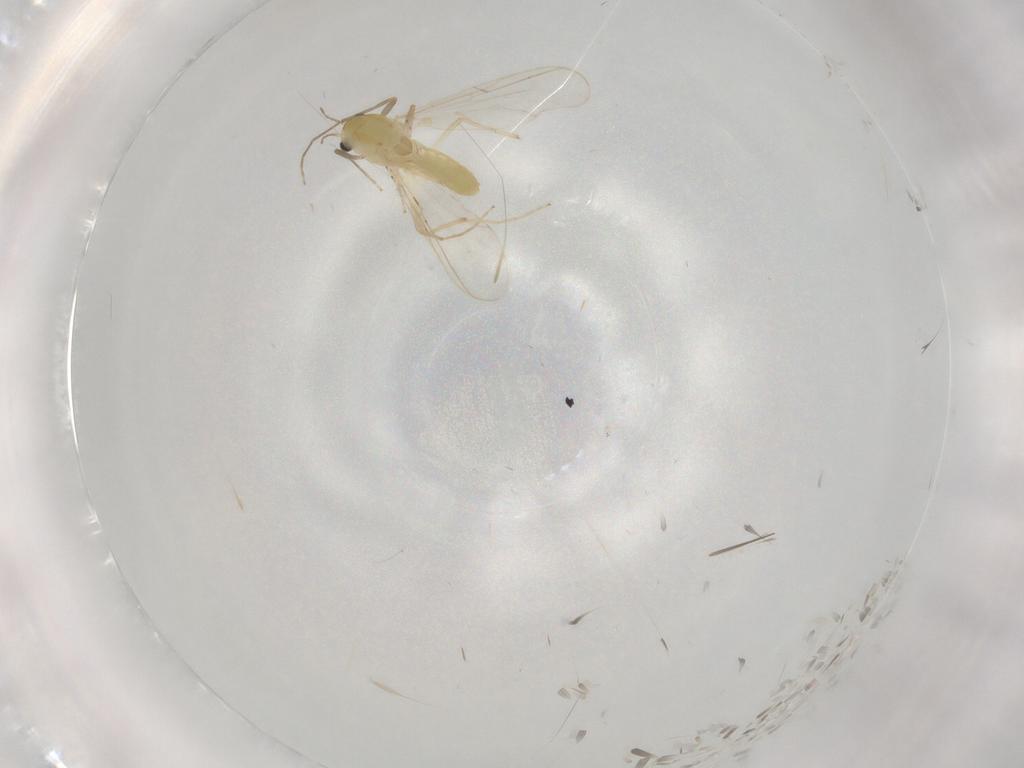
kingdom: Animalia
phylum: Arthropoda
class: Insecta
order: Diptera
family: Chironomidae
